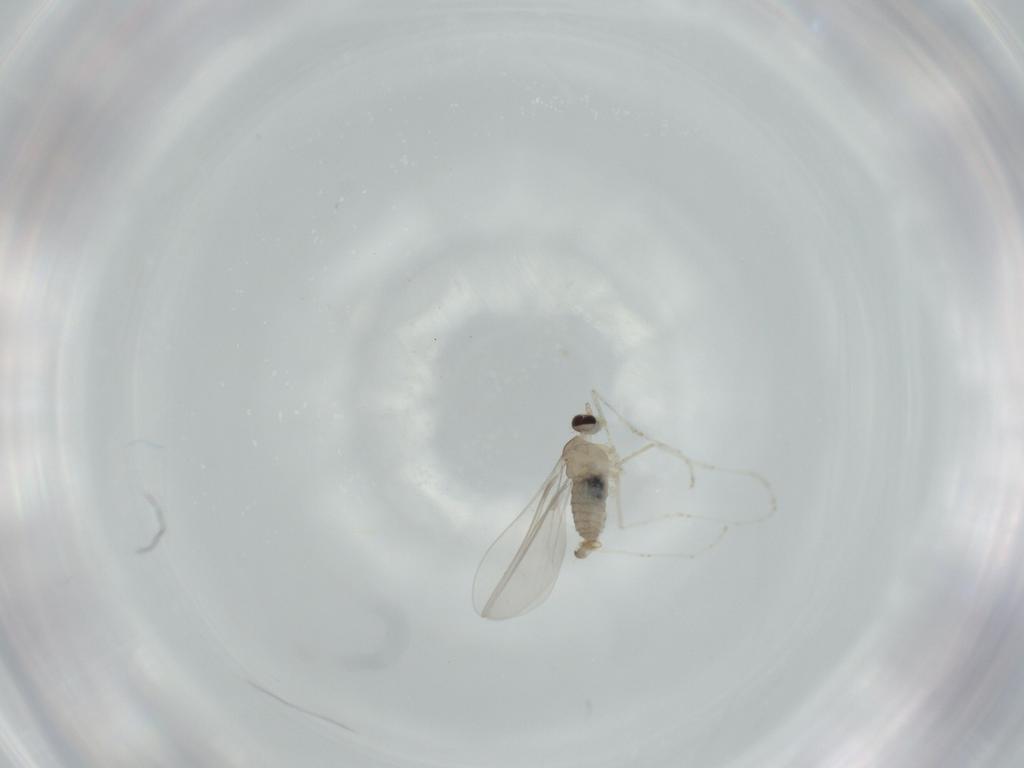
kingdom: Animalia
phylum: Arthropoda
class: Insecta
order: Diptera
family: Cecidomyiidae
